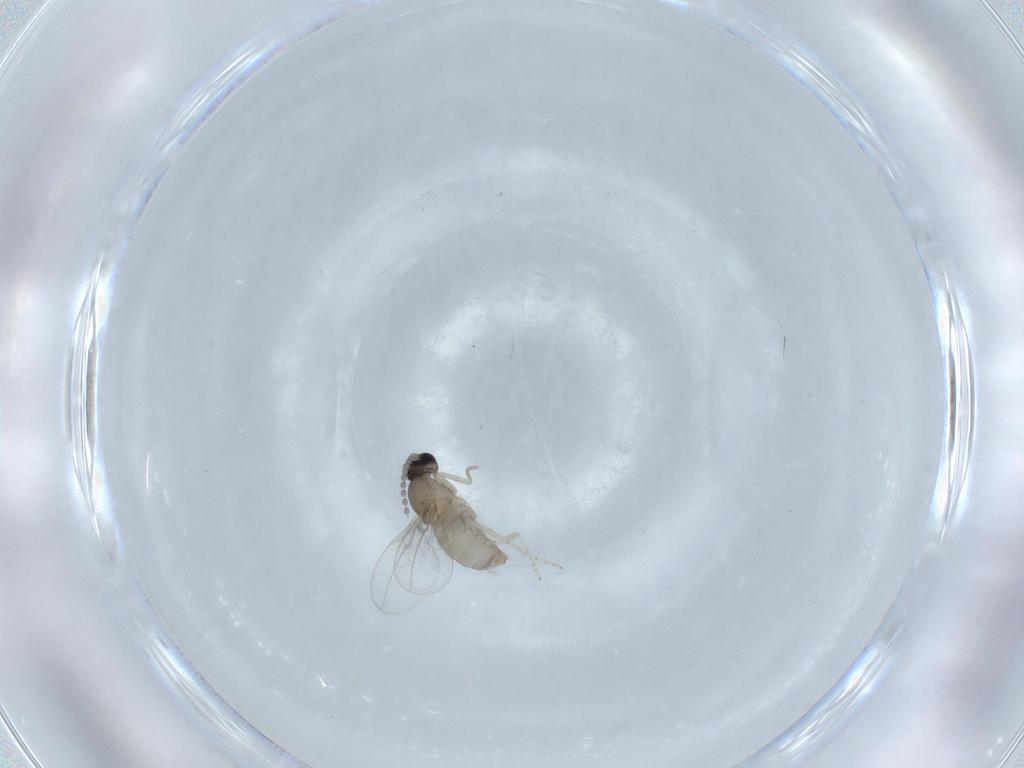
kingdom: Animalia
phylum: Arthropoda
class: Insecta
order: Diptera
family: Cecidomyiidae
